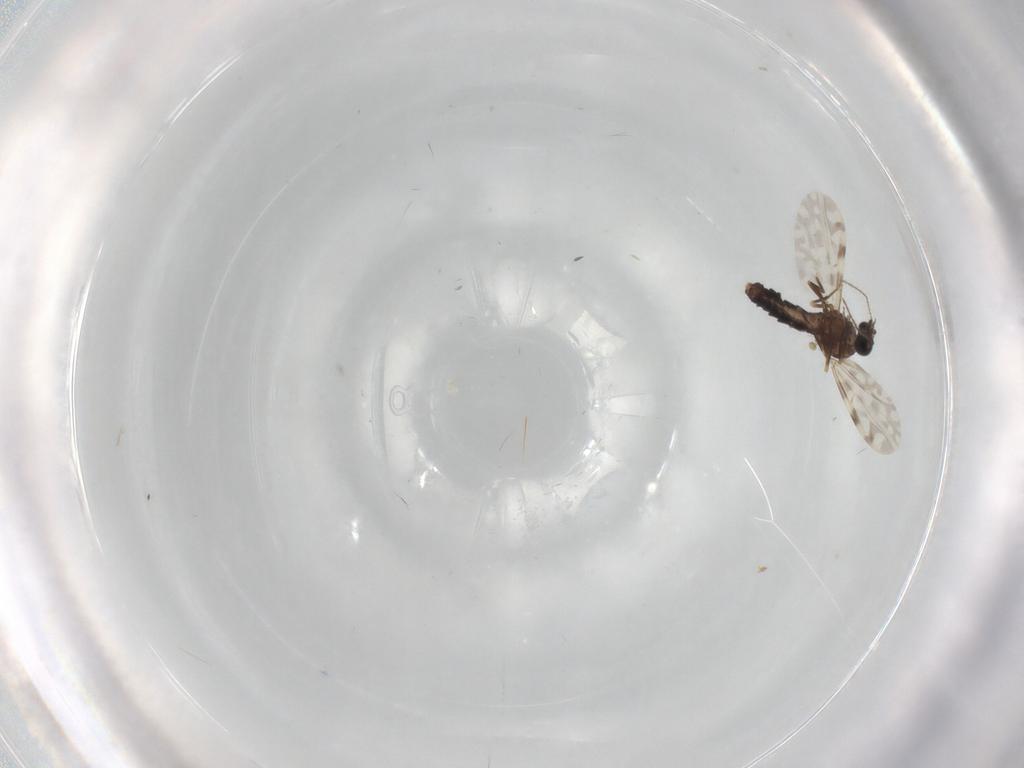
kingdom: Animalia
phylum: Arthropoda
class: Insecta
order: Diptera
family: Ceratopogonidae
